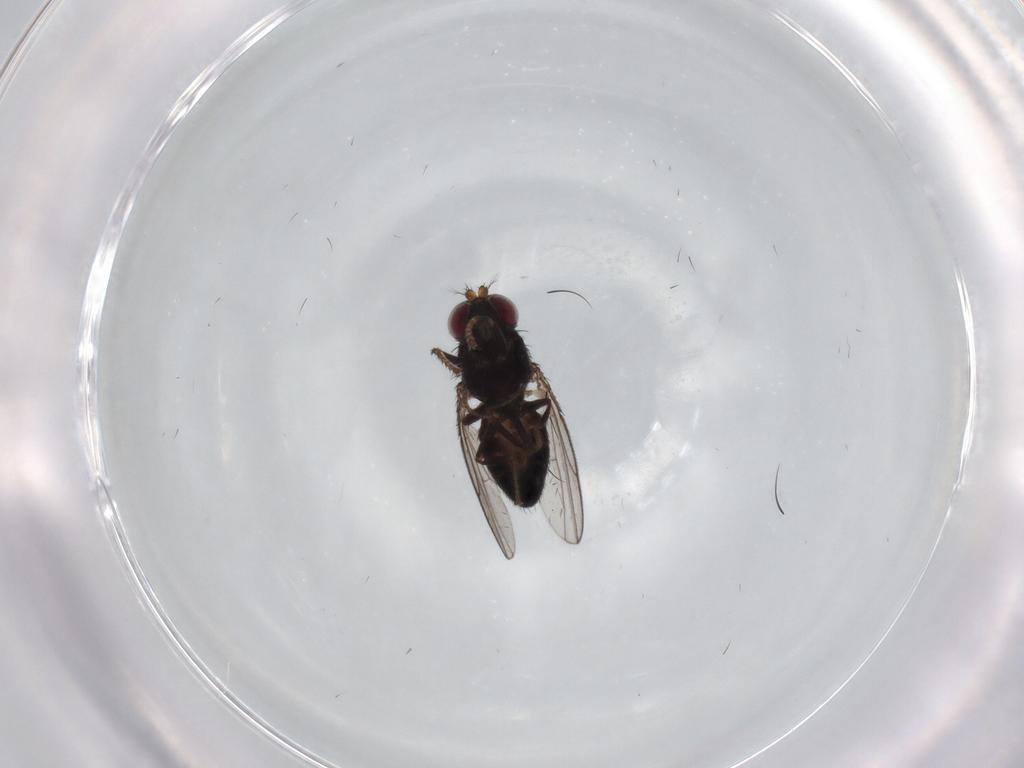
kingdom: Animalia
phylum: Arthropoda
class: Insecta
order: Diptera
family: Ephydridae
